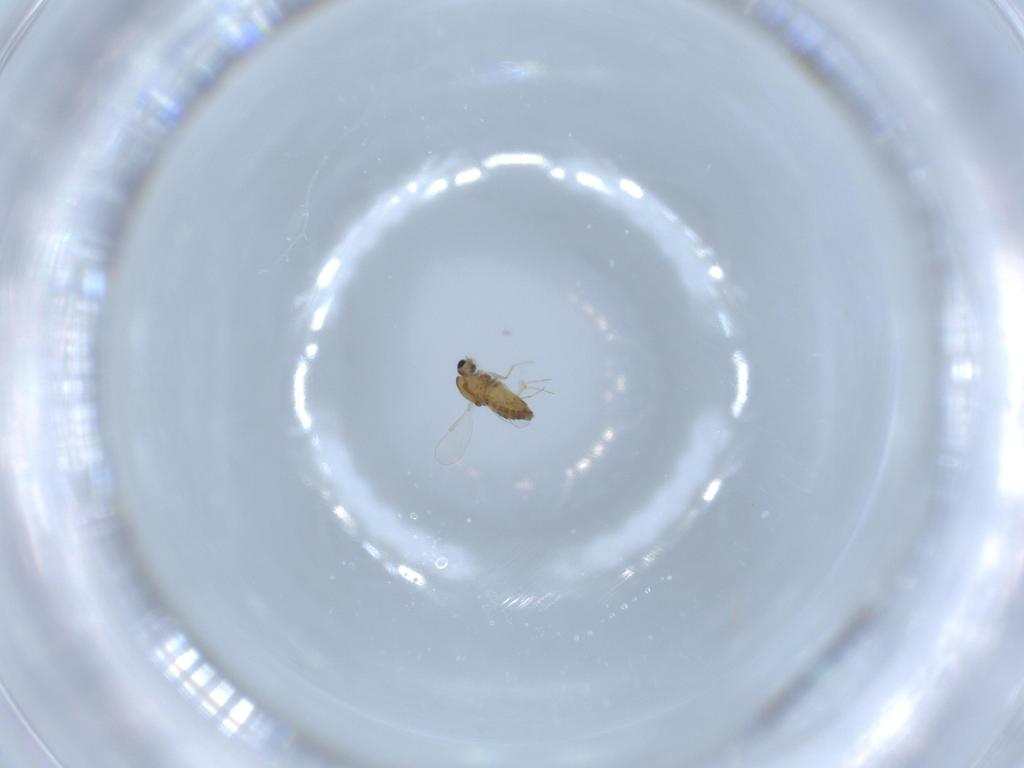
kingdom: Animalia
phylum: Arthropoda
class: Insecta
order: Diptera
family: Chironomidae
